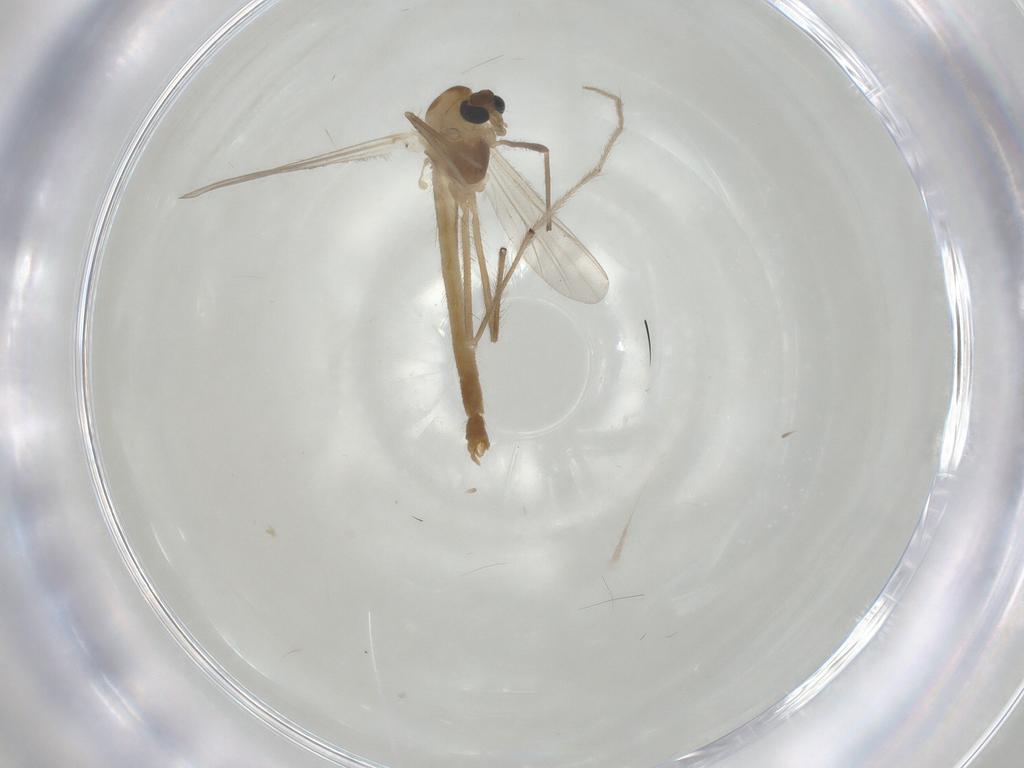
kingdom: Animalia
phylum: Arthropoda
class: Insecta
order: Diptera
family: Chironomidae
